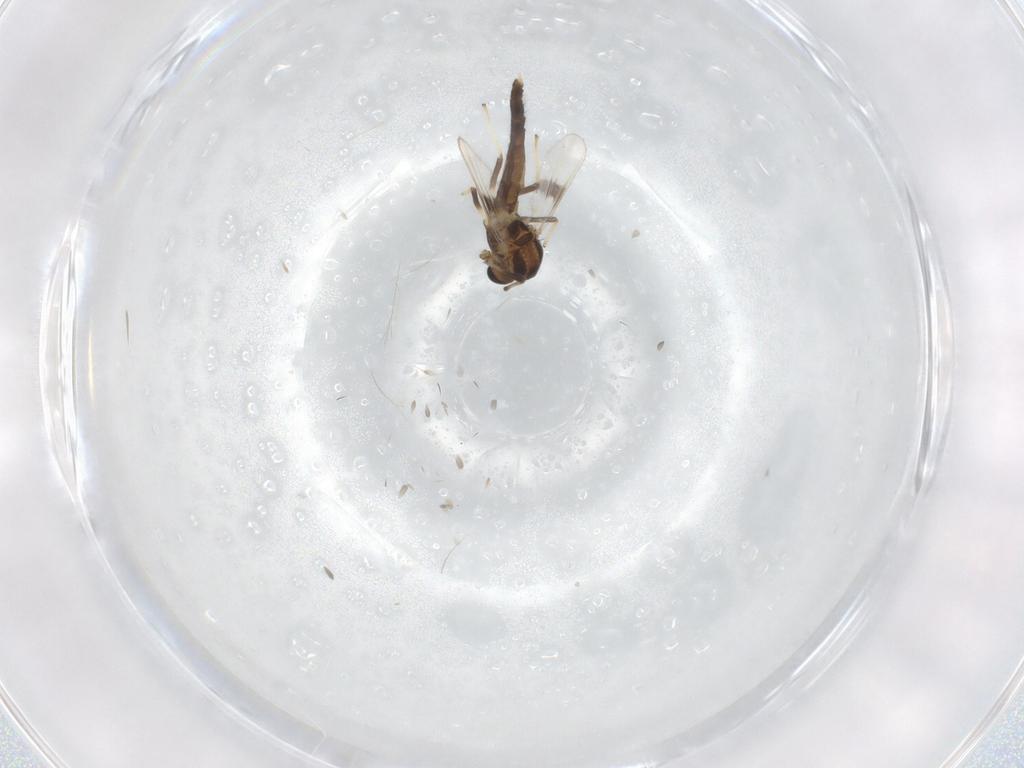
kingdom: Animalia
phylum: Arthropoda
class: Insecta
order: Diptera
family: Chironomidae
